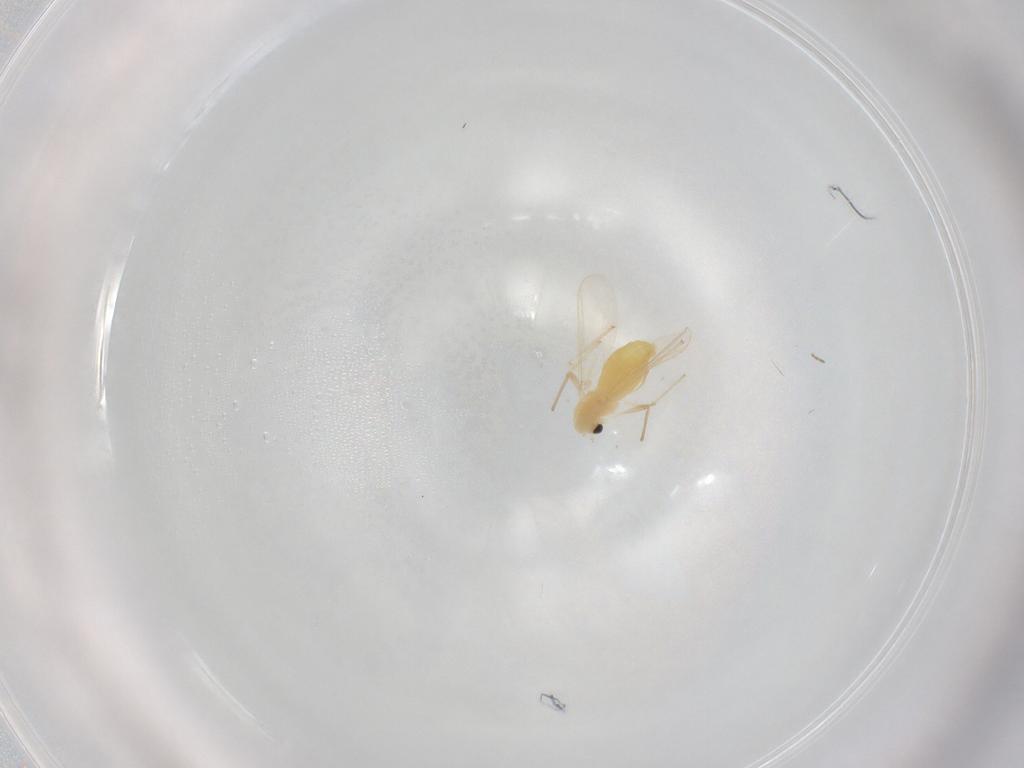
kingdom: Animalia
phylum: Arthropoda
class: Insecta
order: Diptera
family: Chironomidae
